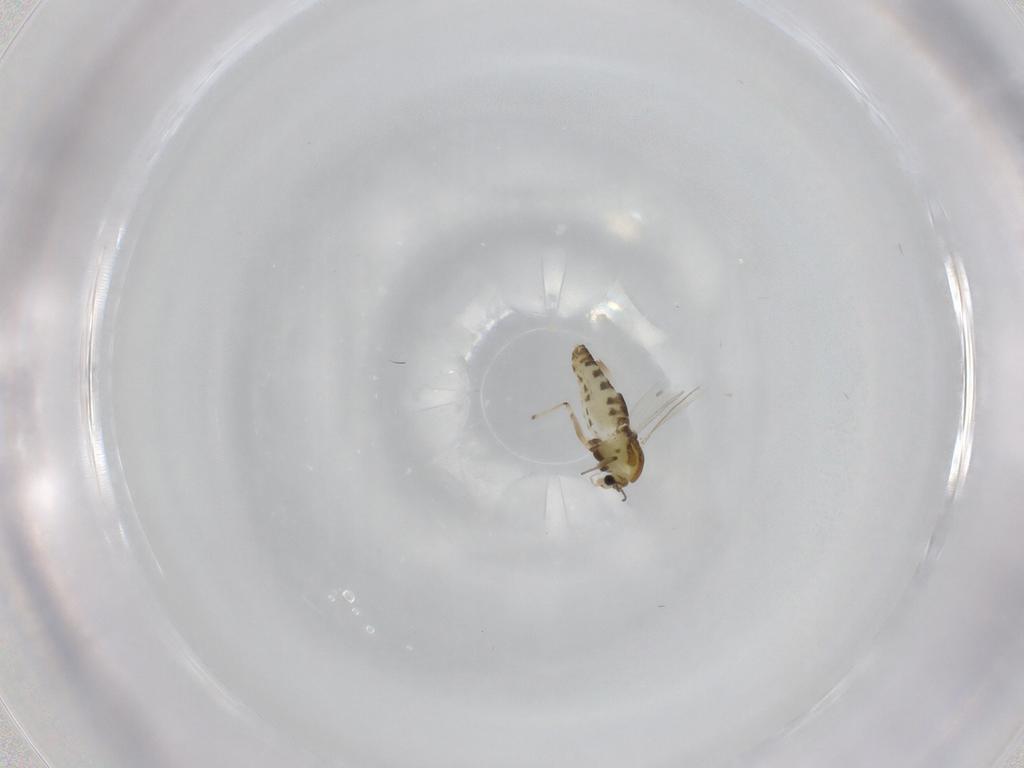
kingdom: Animalia
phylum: Arthropoda
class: Insecta
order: Diptera
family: Chironomidae
